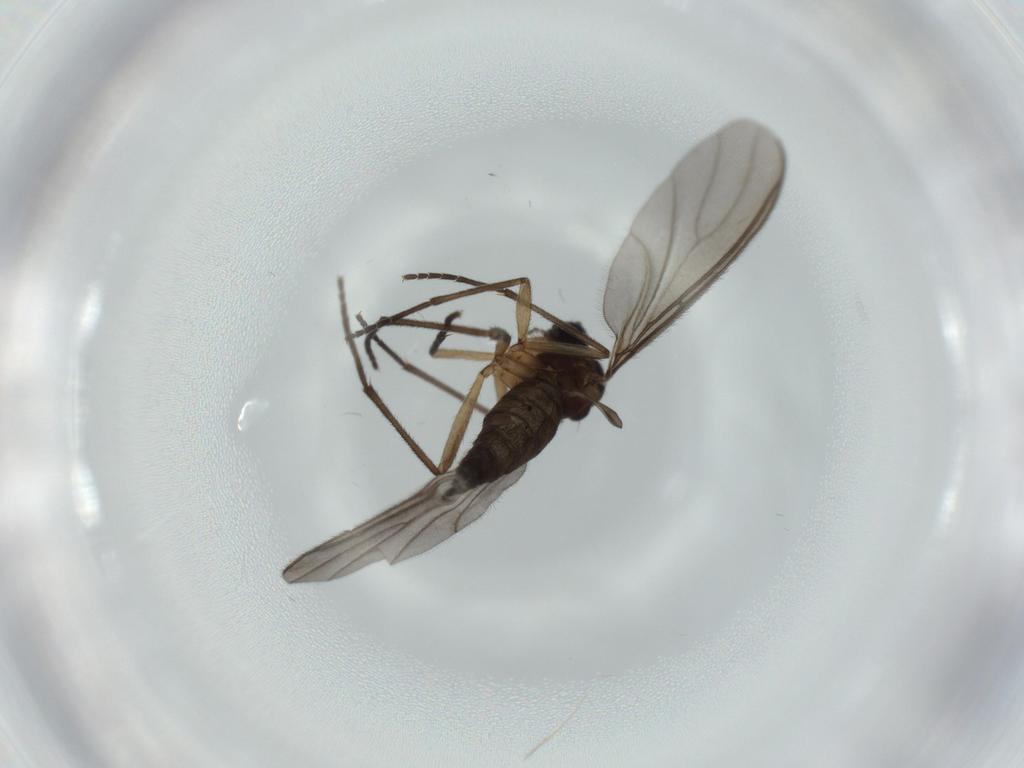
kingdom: Animalia
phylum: Arthropoda
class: Insecta
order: Diptera
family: Sciaridae
